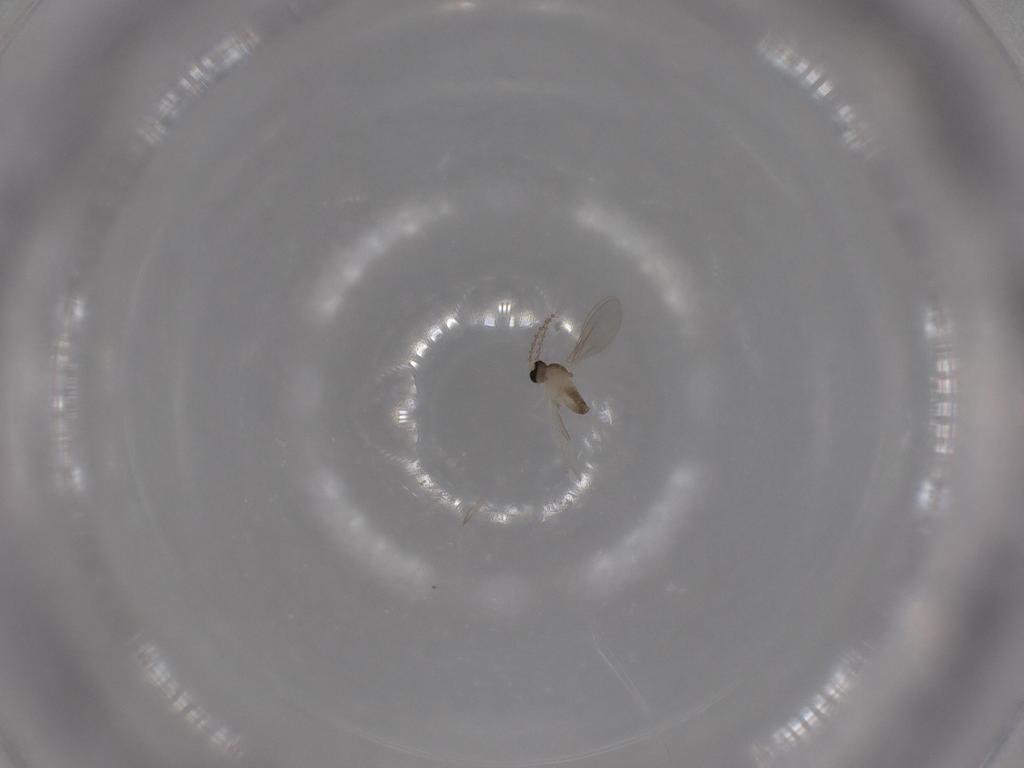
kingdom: Animalia
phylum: Arthropoda
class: Insecta
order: Diptera
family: Cecidomyiidae
